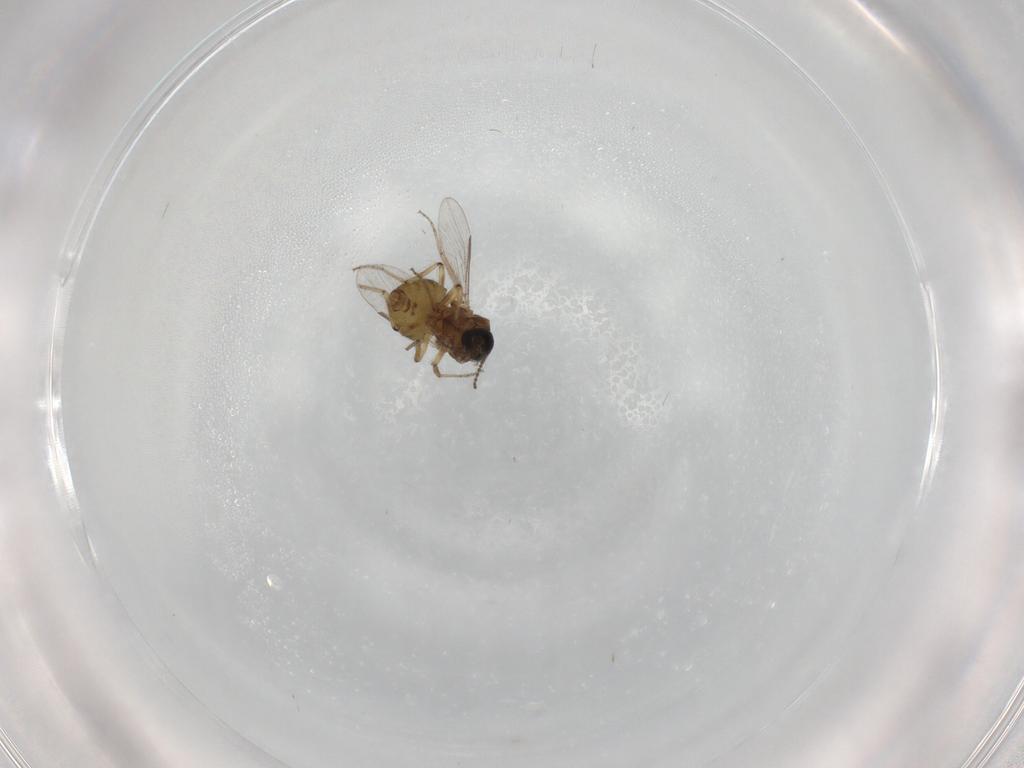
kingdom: Animalia
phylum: Arthropoda
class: Insecta
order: Diptera
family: Ceratopogonidae
